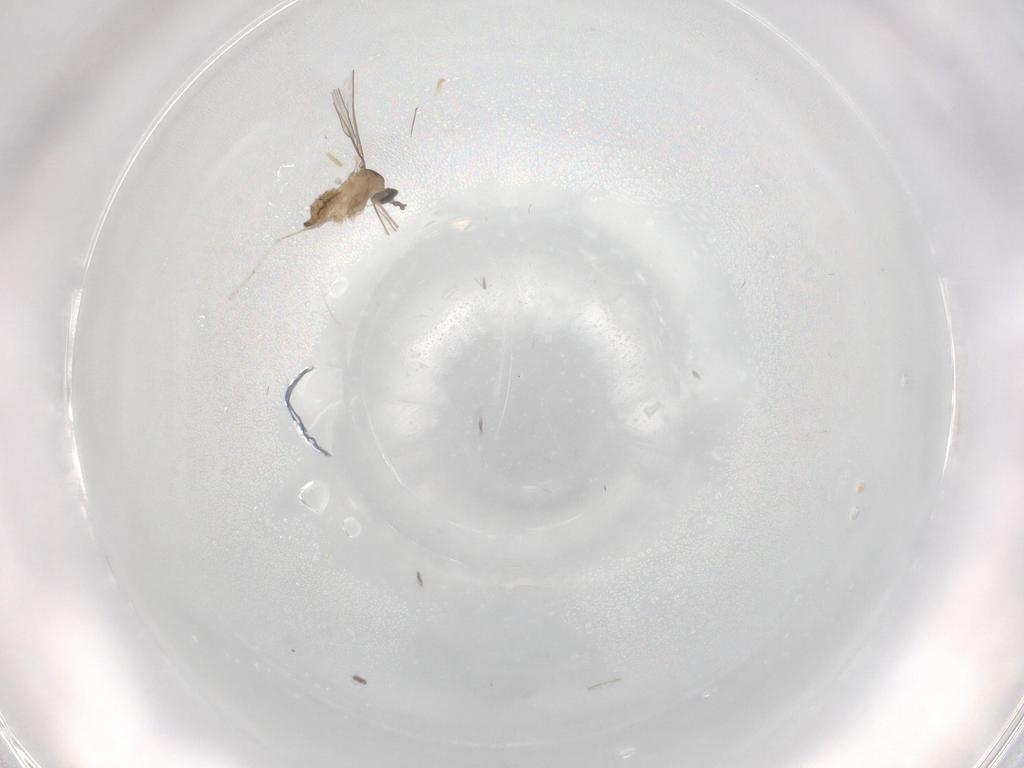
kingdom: Animalia
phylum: Arthropoda
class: Insecta
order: Diptera
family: Cecidomyiidae
